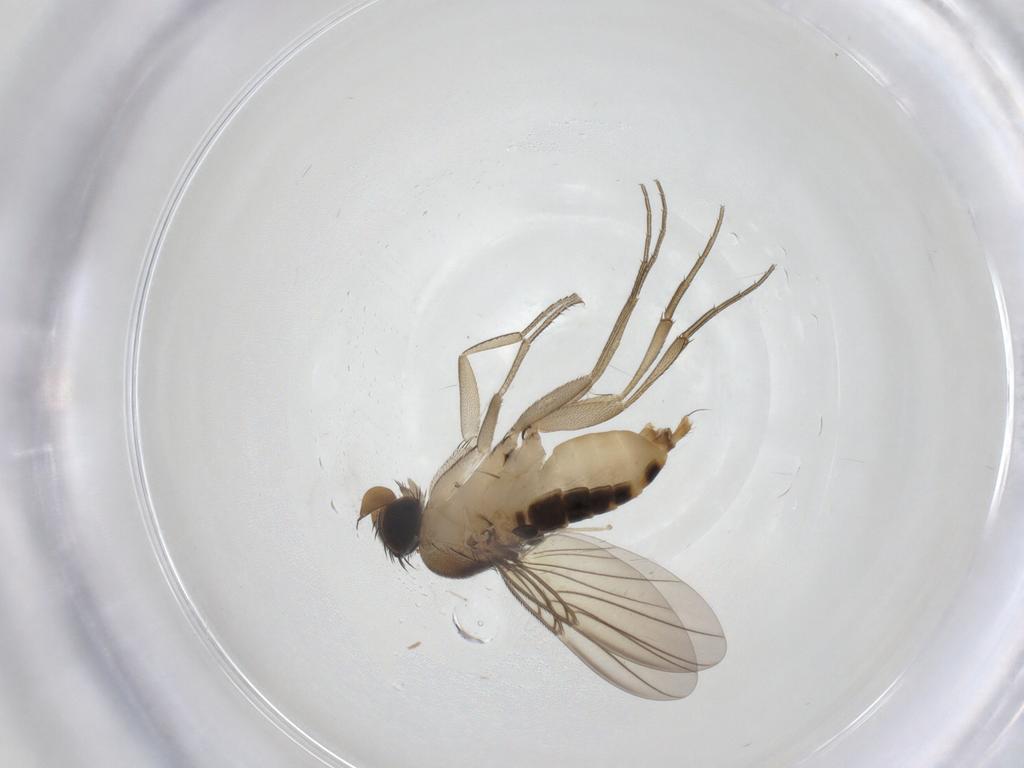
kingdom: Animalia
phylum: Arthropoda
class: Insecta
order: Diptera
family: Phoridae
